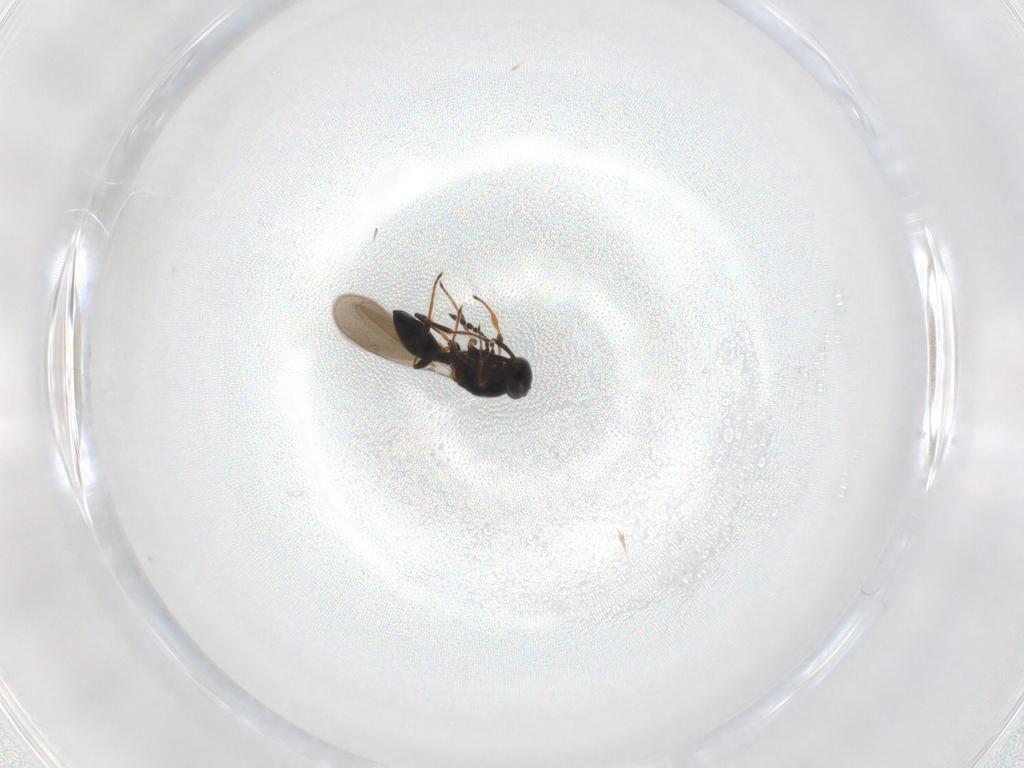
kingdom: Animalia
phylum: Arthropoda
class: Insecta
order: Hymenoptera
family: Platygastridae
